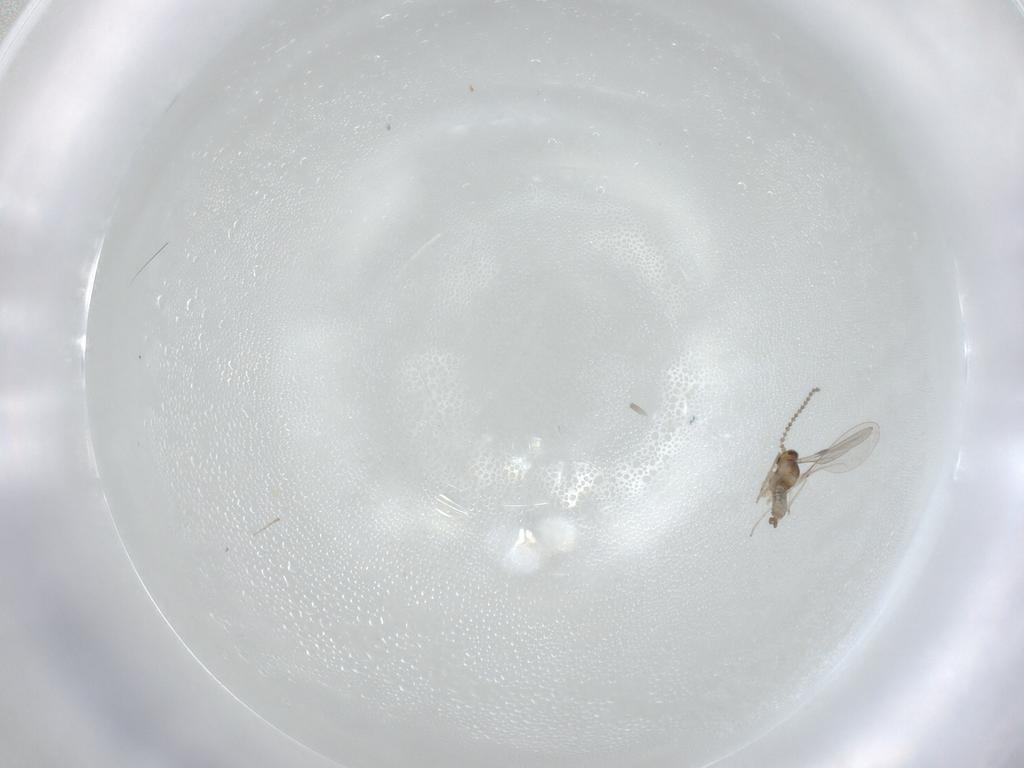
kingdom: Animalia
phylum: Arthropoda
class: Insecta
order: Diptera
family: Cecidomyiidae
